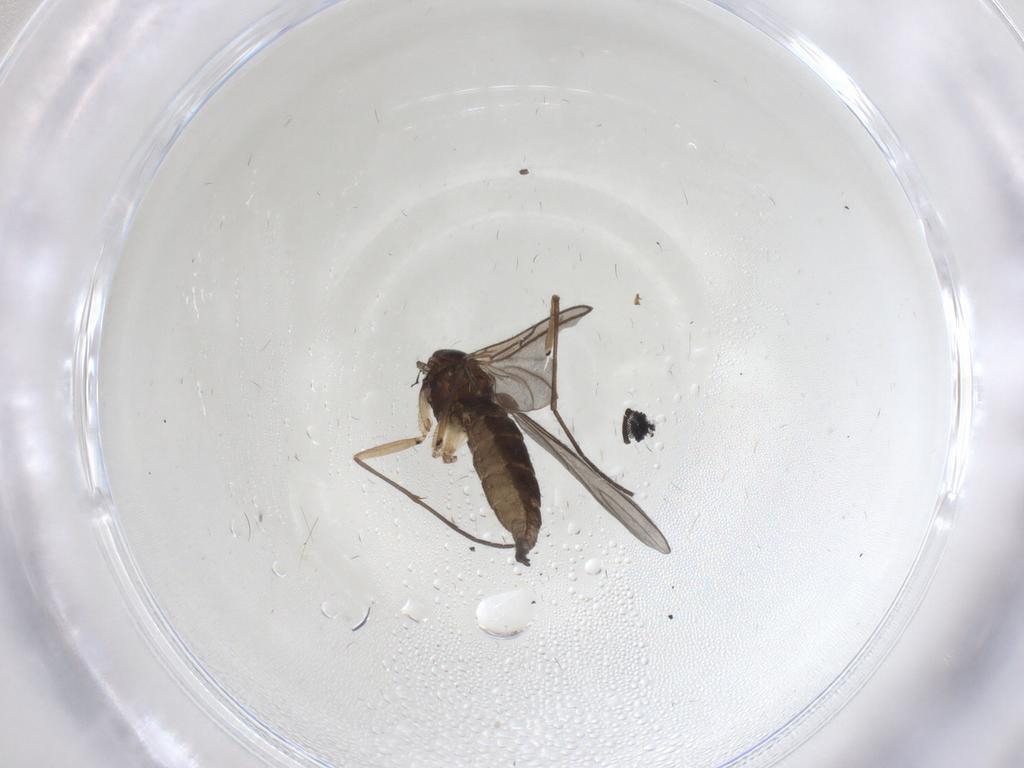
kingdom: Animalia
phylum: Arthropoda
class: Insecta
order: Diptera
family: Sciaridae
